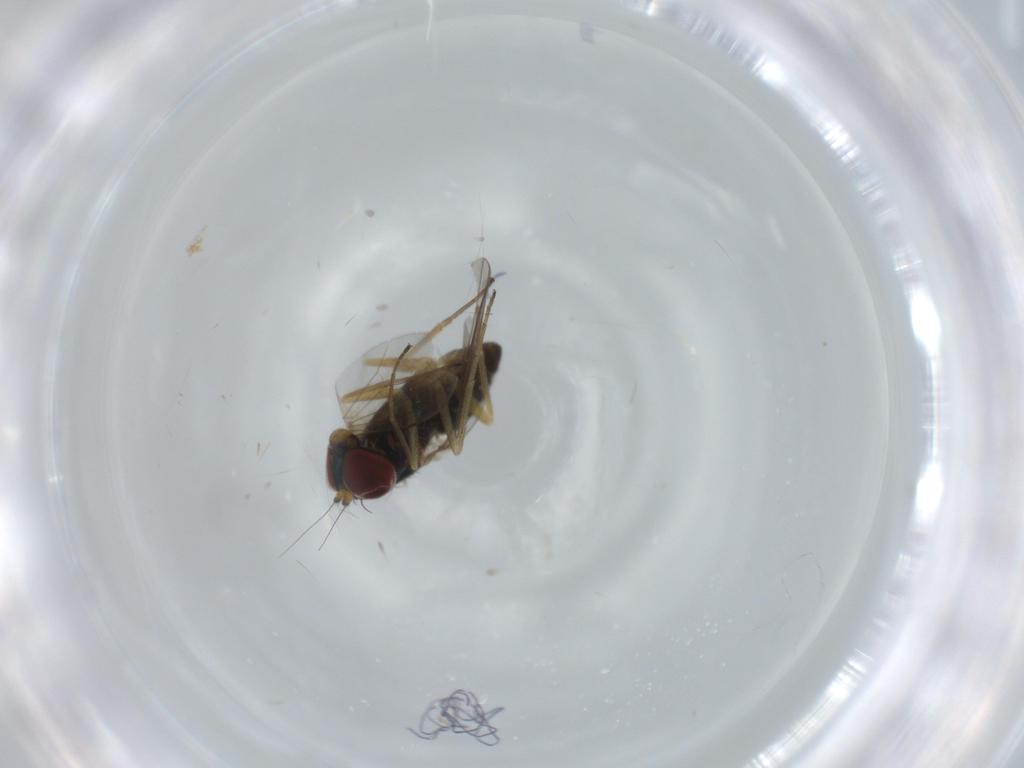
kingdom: Animalia
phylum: Arthropoda
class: Insecta
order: Diptera
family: Dolichopodidae
